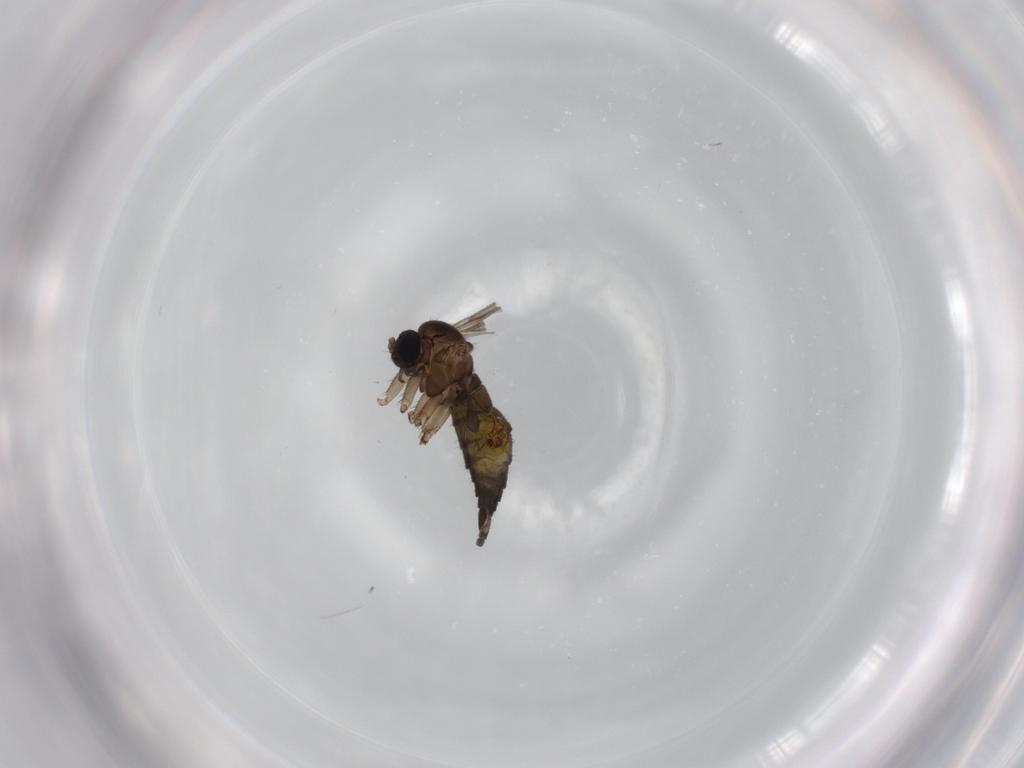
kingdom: Animalia
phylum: Arthropoda
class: Insecta
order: Diptera
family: Sciaridae
